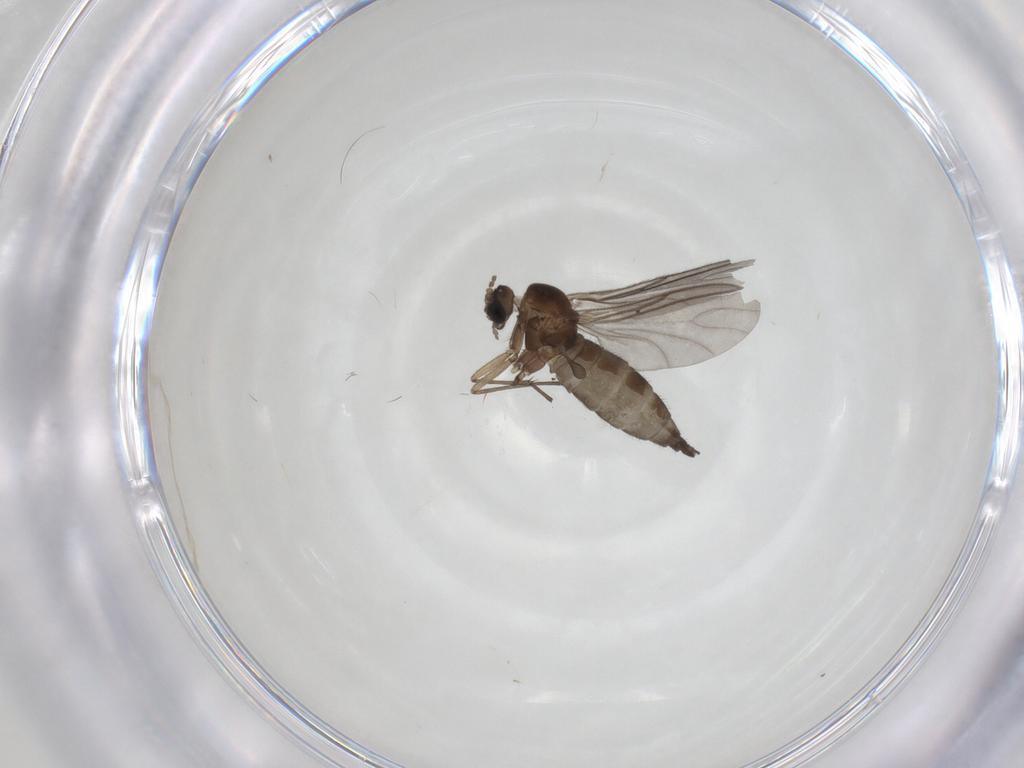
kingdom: Animalia
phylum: Arthropoda
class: Insecta
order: Diptera
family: Sciaridae
